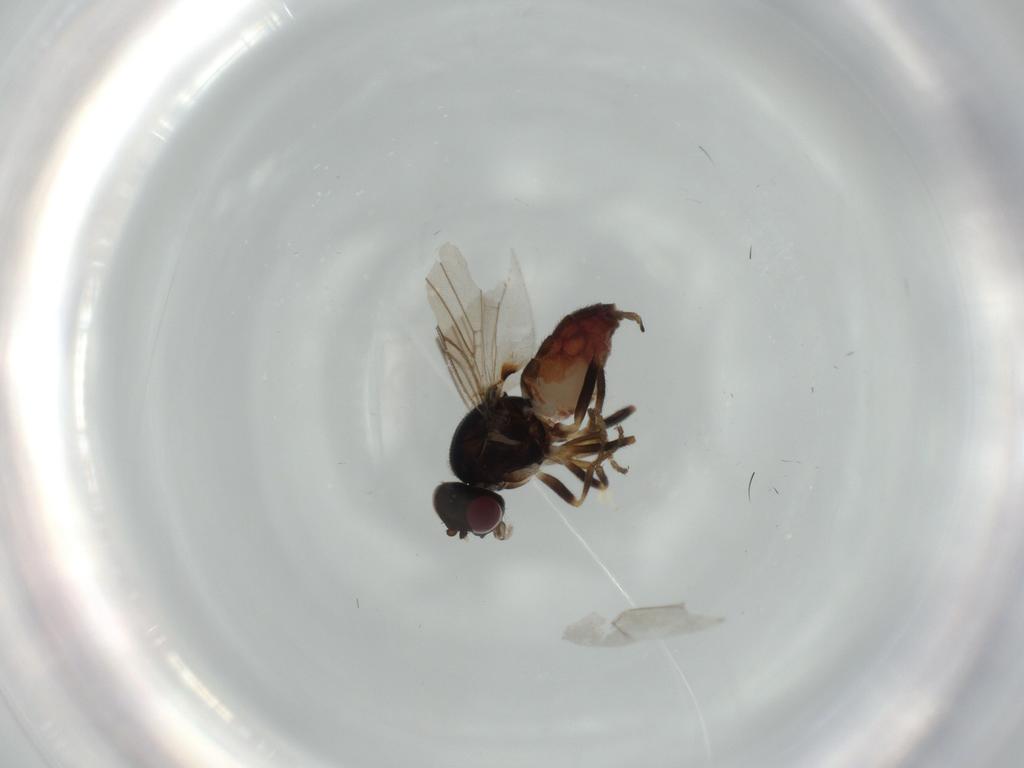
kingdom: Animalia
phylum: Arthropoda
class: Insecta
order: Diptera
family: Chloropidae
